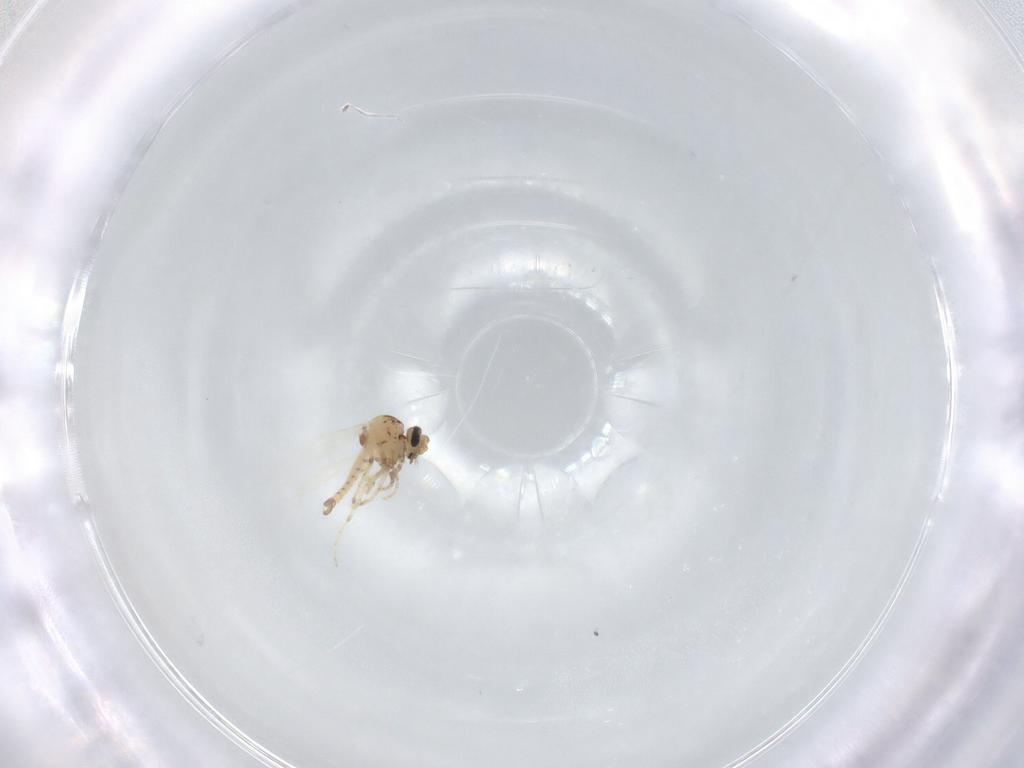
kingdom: Animalia
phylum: Arthropoda
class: Insecta
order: Diptera
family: Ceratopogonidae
